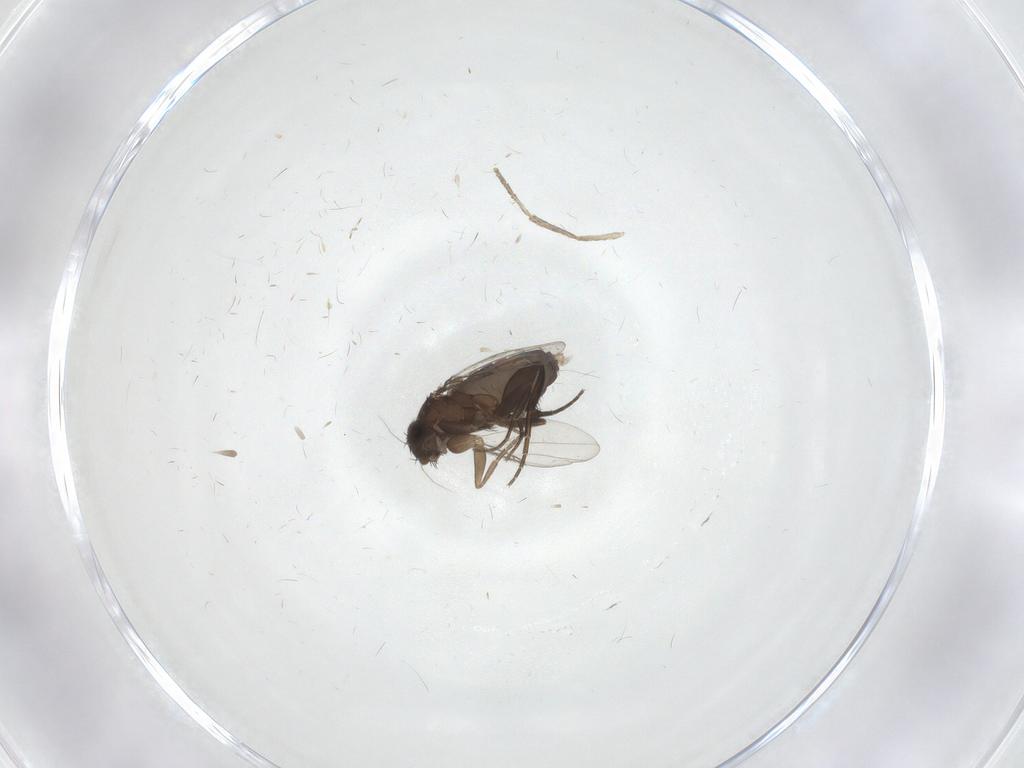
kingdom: Animalia
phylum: Arthropoda
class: Insecta
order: Diptera
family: Phoridae
